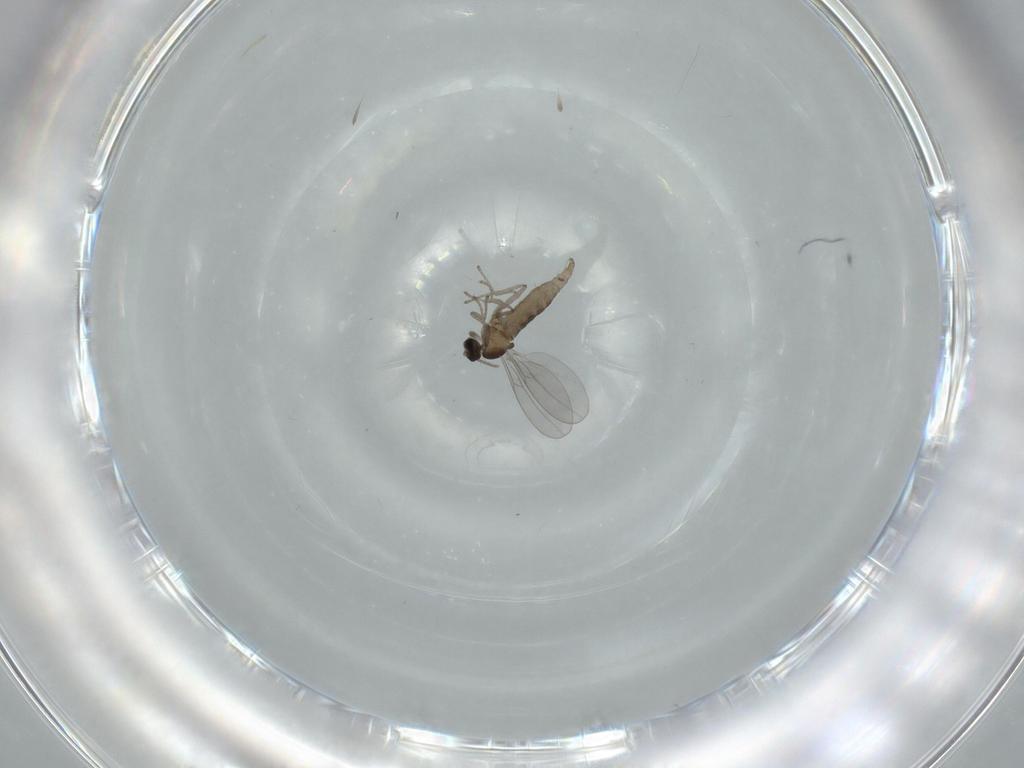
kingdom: Animalia
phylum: Arthropoda
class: Insecta
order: Diptera
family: Cecidomyiidae
